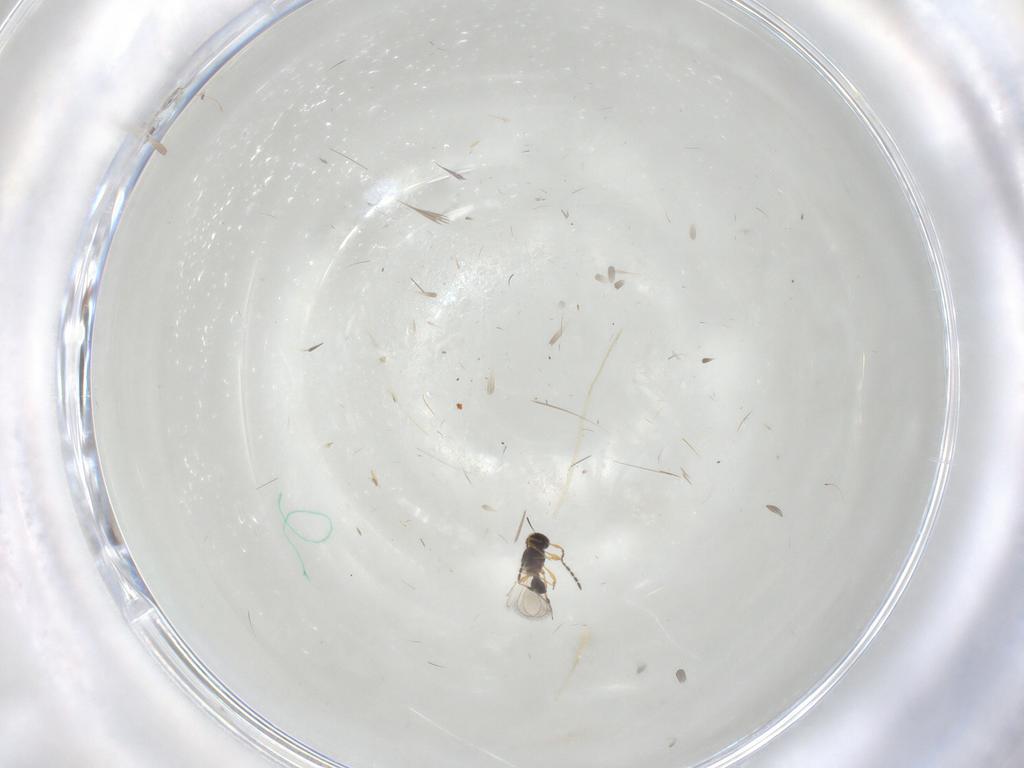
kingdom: Animalia
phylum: Arthropoda
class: Insecta
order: Hymenoptera
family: Platygastridae
